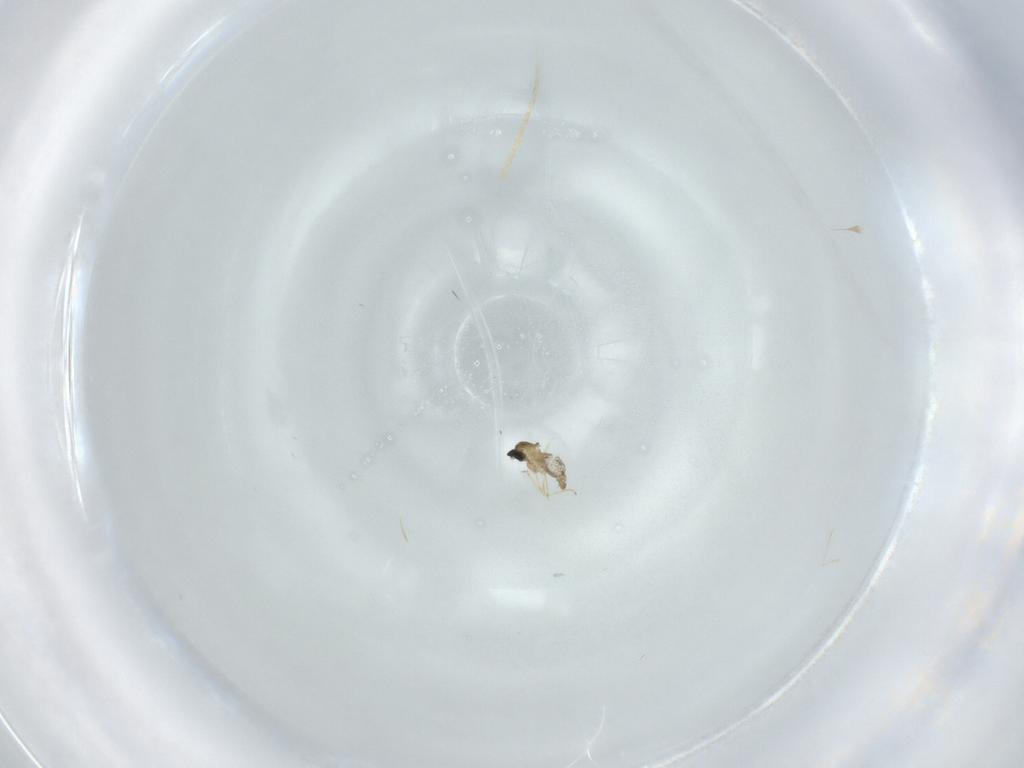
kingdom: Animalia
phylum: Arthropoda
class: Insecta
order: Diptera
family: Cecidomyiidae
